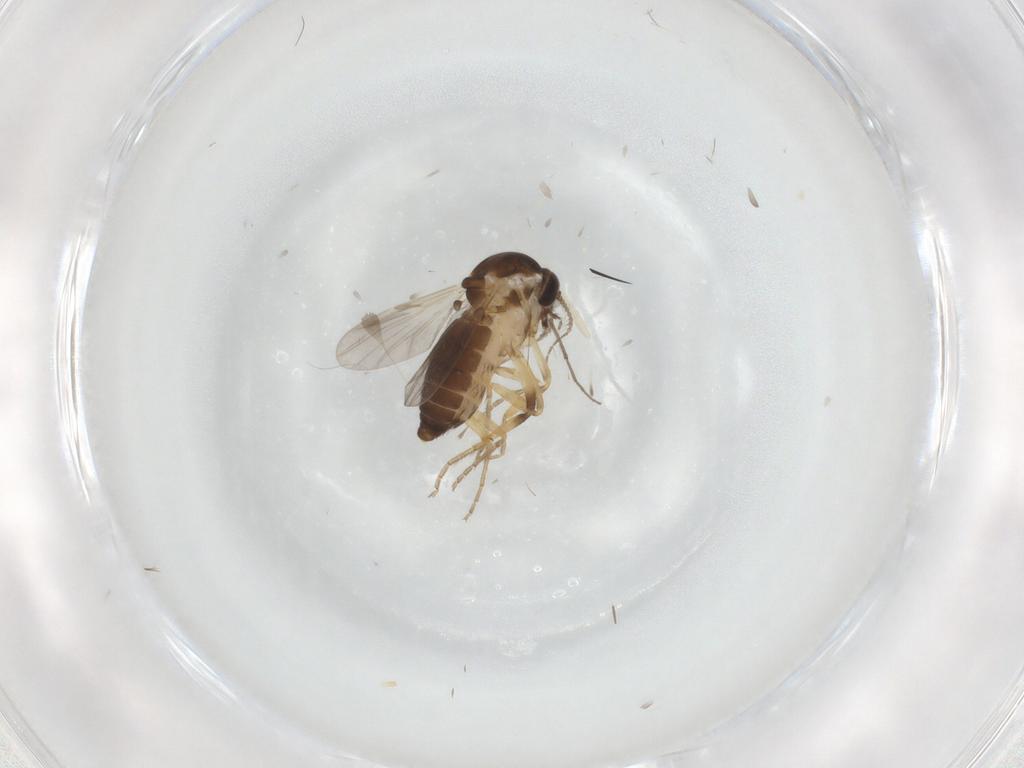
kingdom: Animalia
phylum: Arthropoda
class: Insecta
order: Diptera
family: Ceratopogonidae
